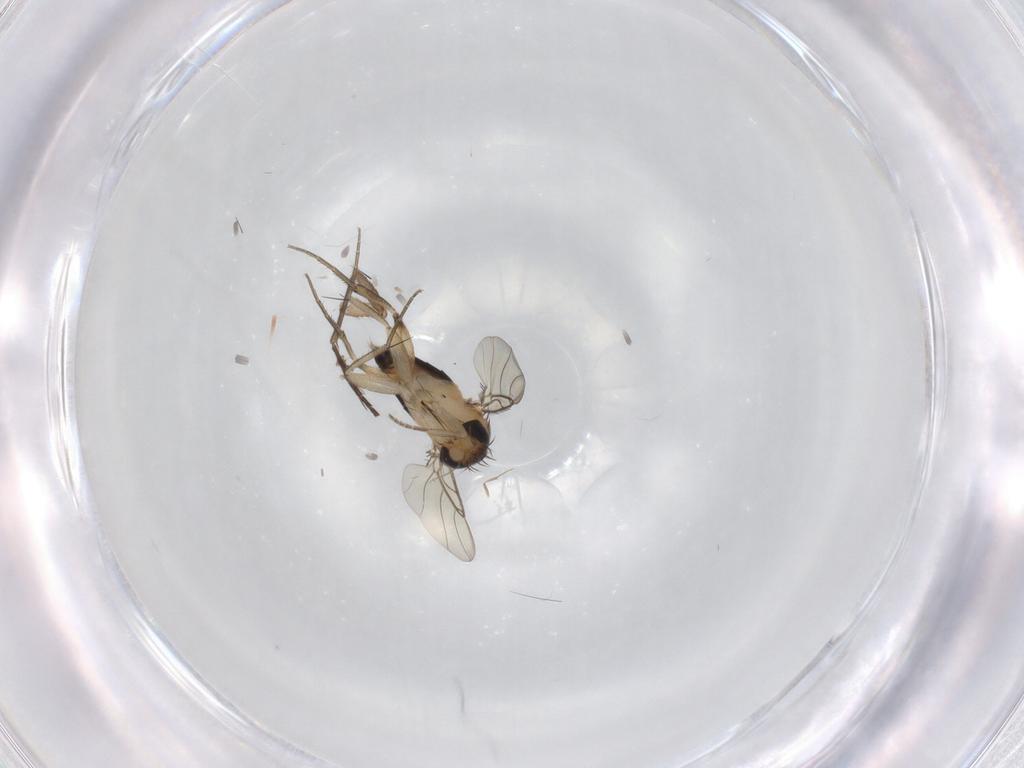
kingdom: Animalia
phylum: Arthropoda
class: Insecta
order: Diptera
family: Phoridae
